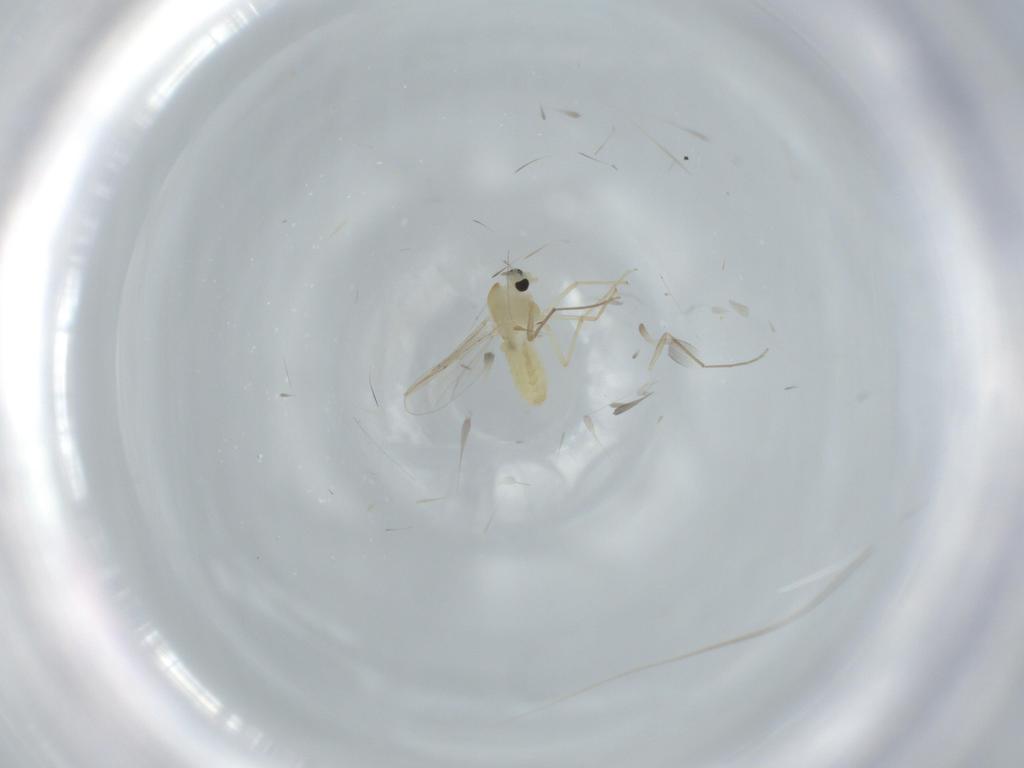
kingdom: Animalia
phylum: Arthropoda
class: Insecta
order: Diptera
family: Chironomidae
